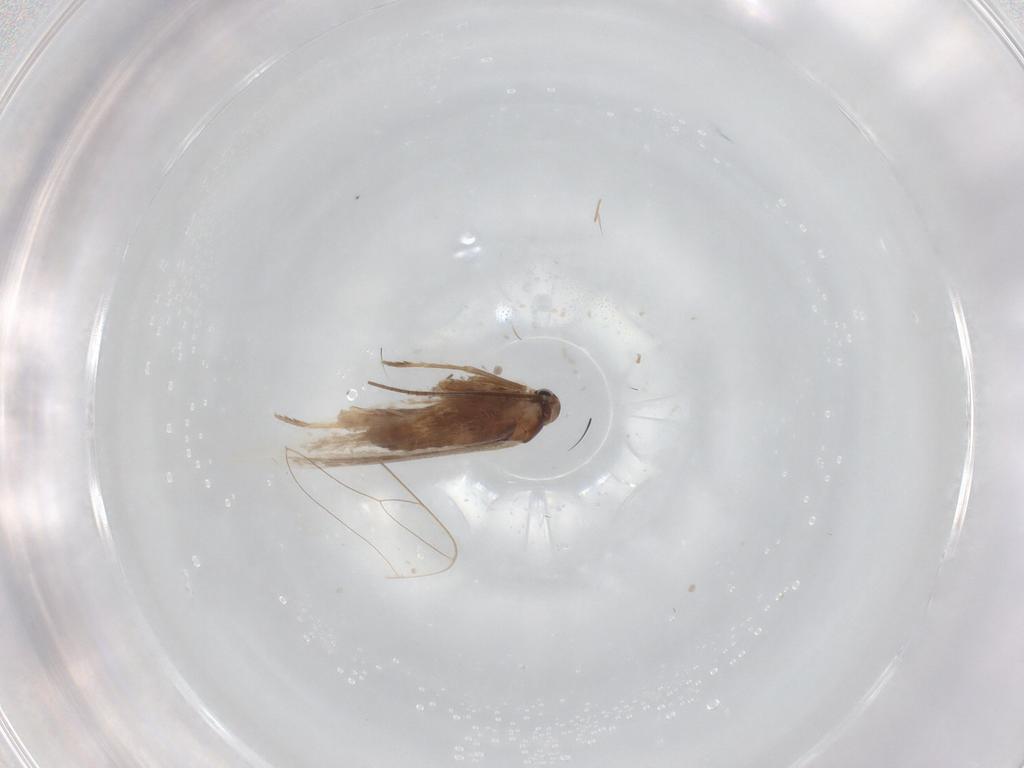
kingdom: Animalia
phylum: Arthropoda
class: Insecta
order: Lepidoptera
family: Gracillariidae
